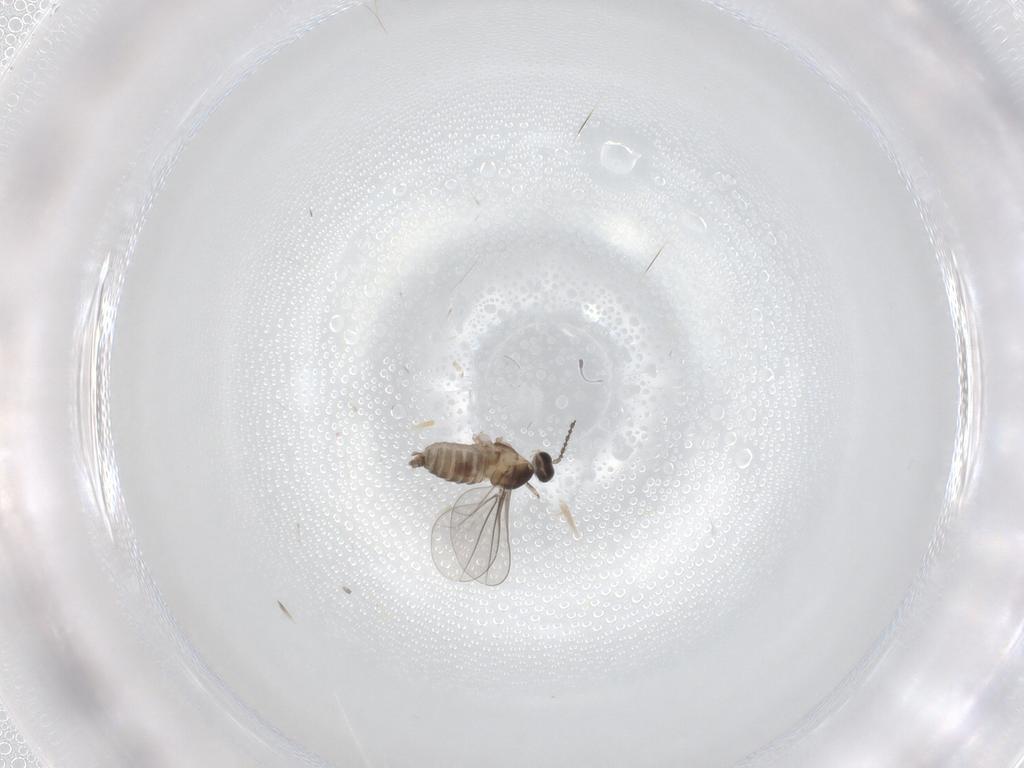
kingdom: Animalia
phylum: Arthropoda
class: Insecta
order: Diptera
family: Cecidomyiidae
